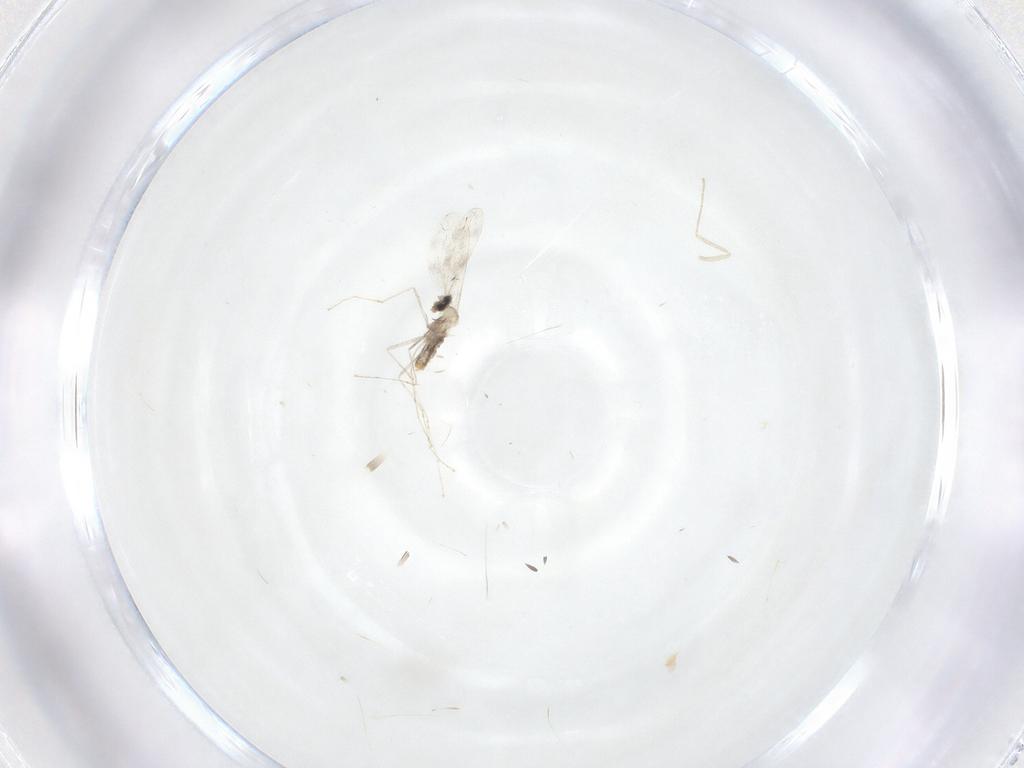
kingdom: Animalia
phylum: Arthropoda
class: Insecta
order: Diptera
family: Cecidomyiidae
